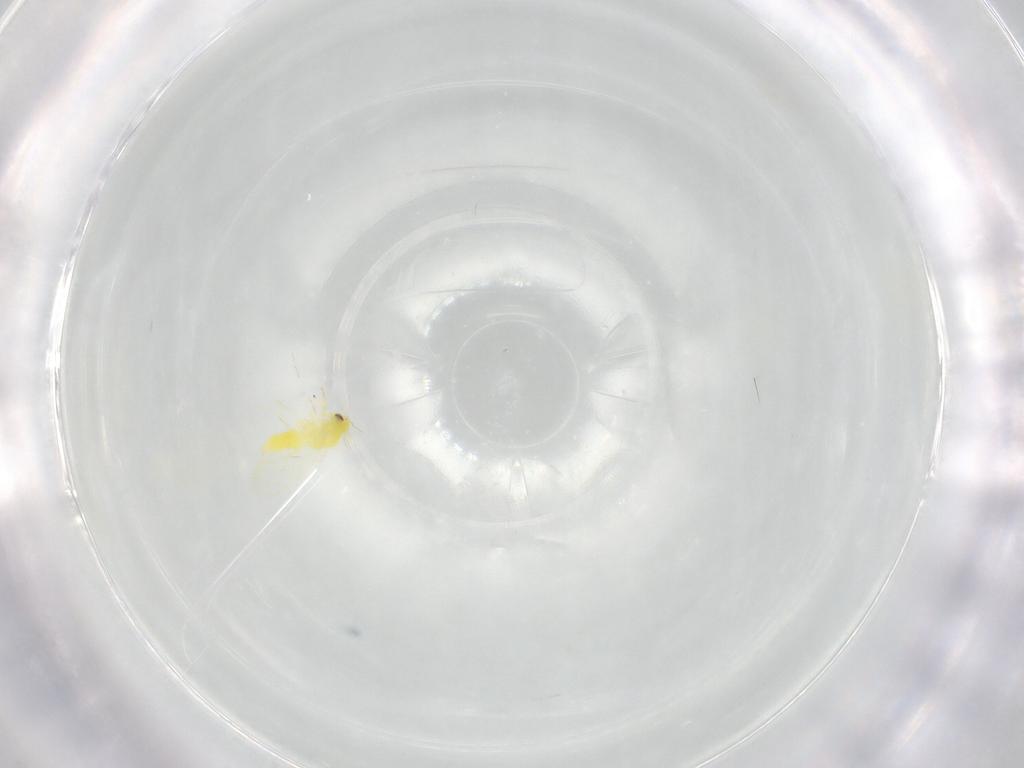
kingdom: Animalia
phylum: Arthropoda
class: Insecta
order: Hemiptera
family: Aleyrodidae
